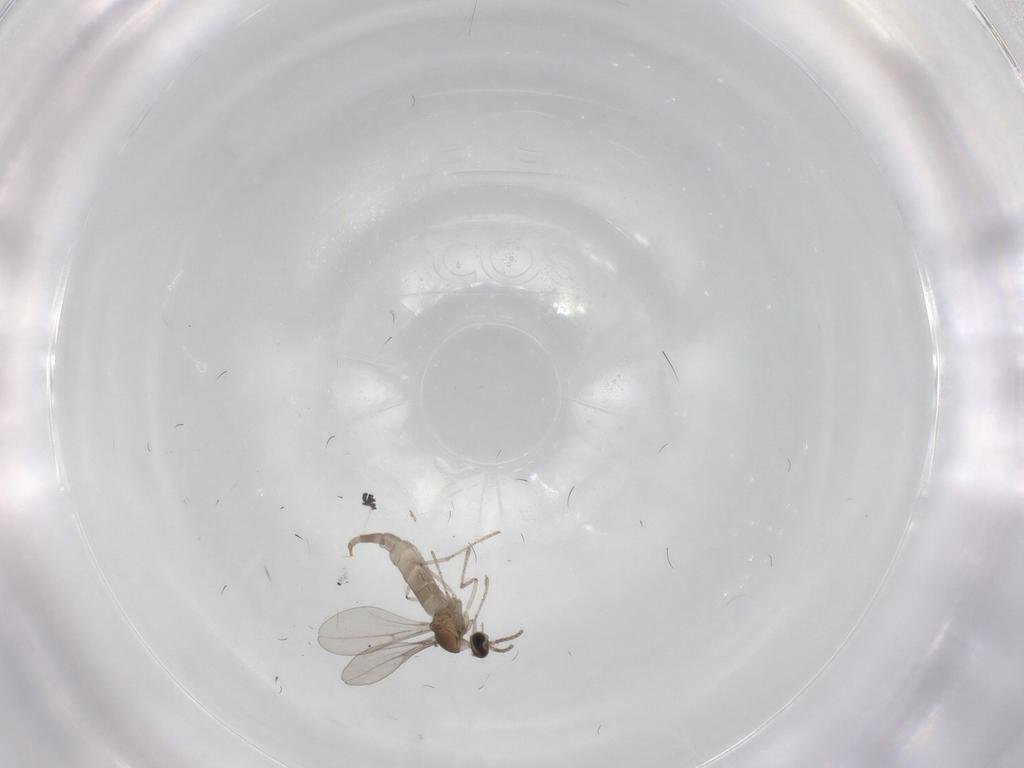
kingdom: Animalia
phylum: Arthropoda
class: Insecta
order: Diptera
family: Cecidomyiidae
